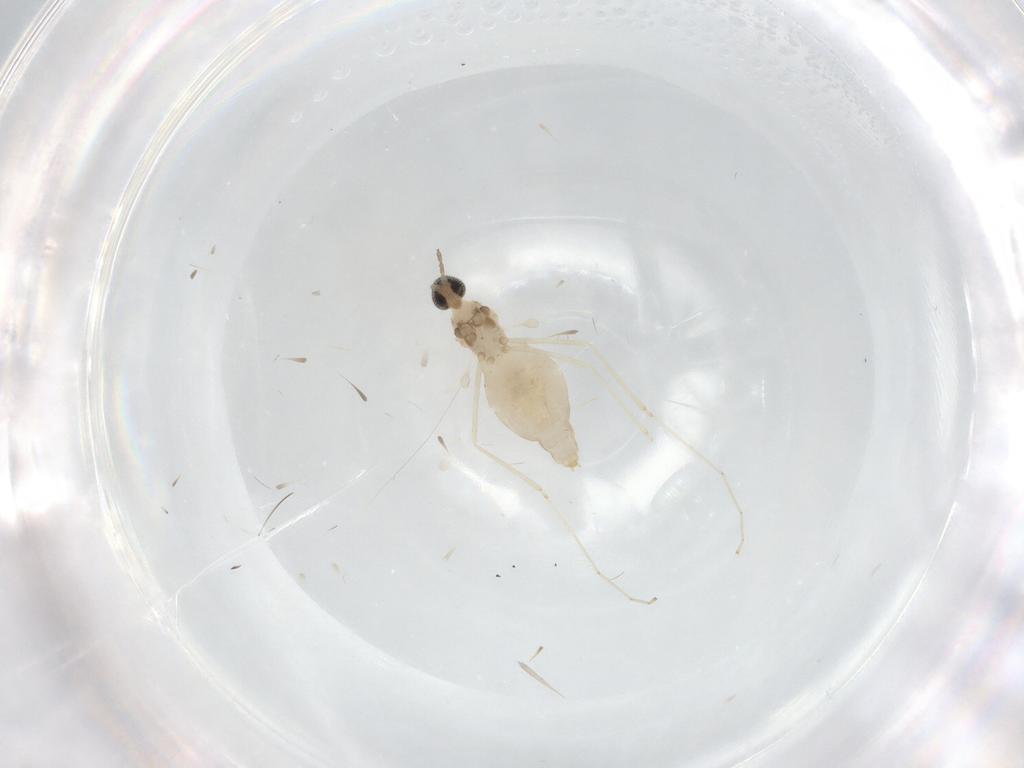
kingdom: Animalia
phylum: Arthropoda
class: Insecta
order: Diptera
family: Cecidomyiidae
